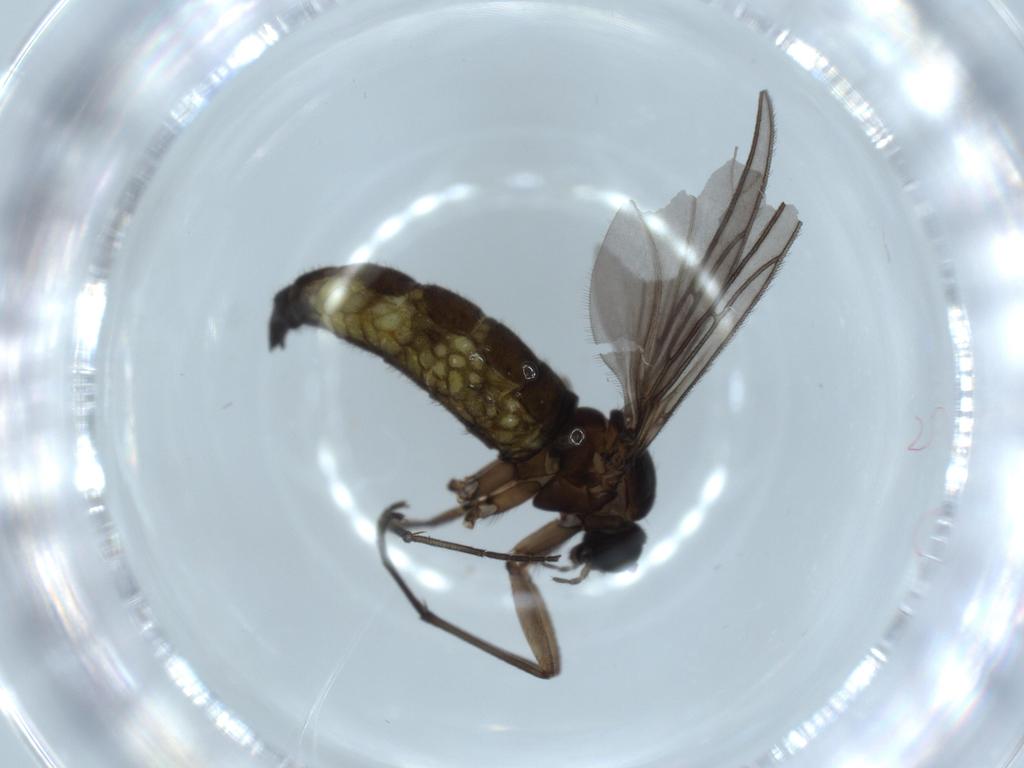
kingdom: Animalia
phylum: Arthropoda
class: Insecta
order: Diptera
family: Sciaridae
